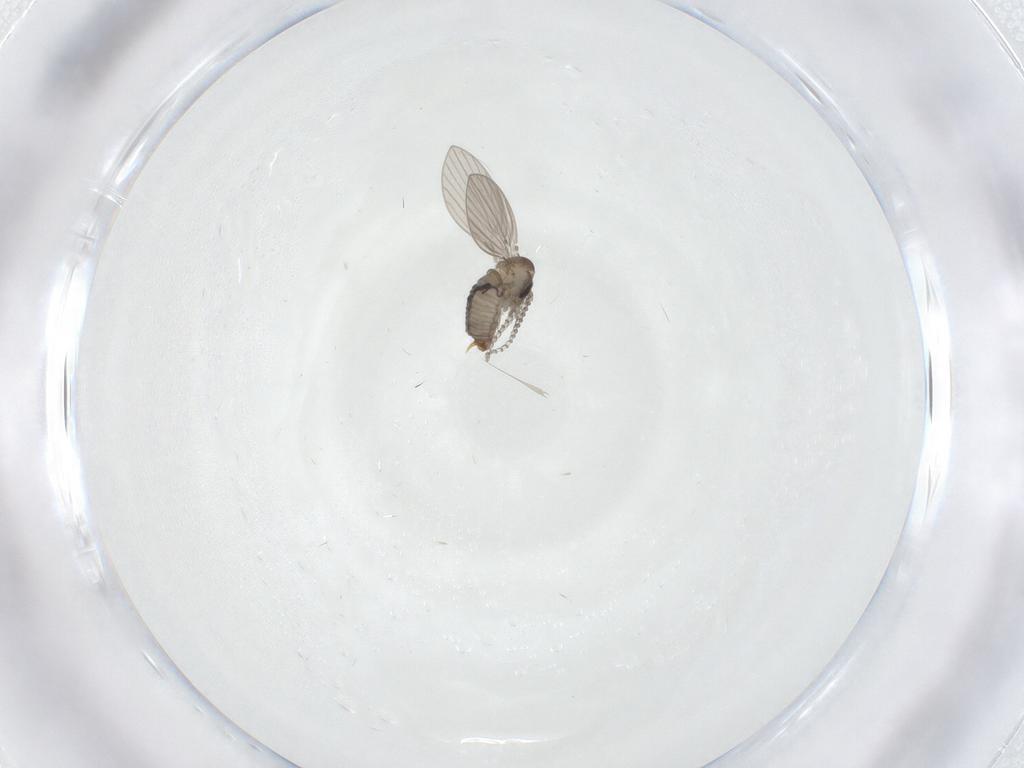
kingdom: Animalia
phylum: Arthropoda
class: Insecta
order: Diptera
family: Psychodidae
